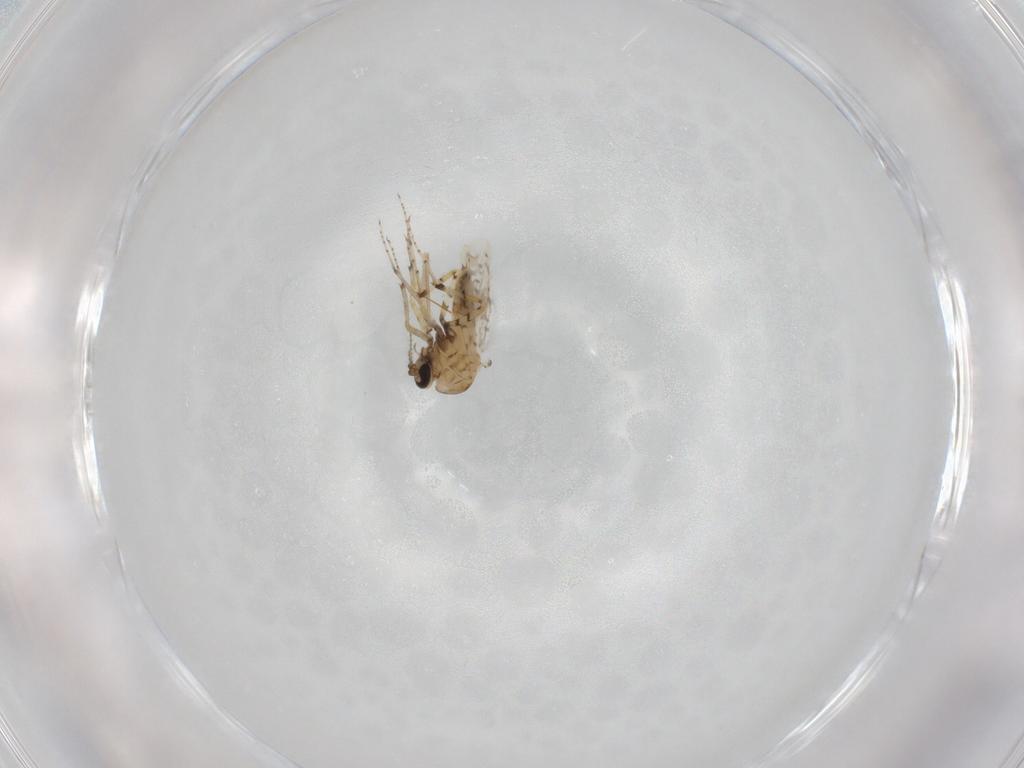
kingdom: Animalia
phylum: Arthropoda
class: Insecta
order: Diptera
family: Ceratopogonidae
